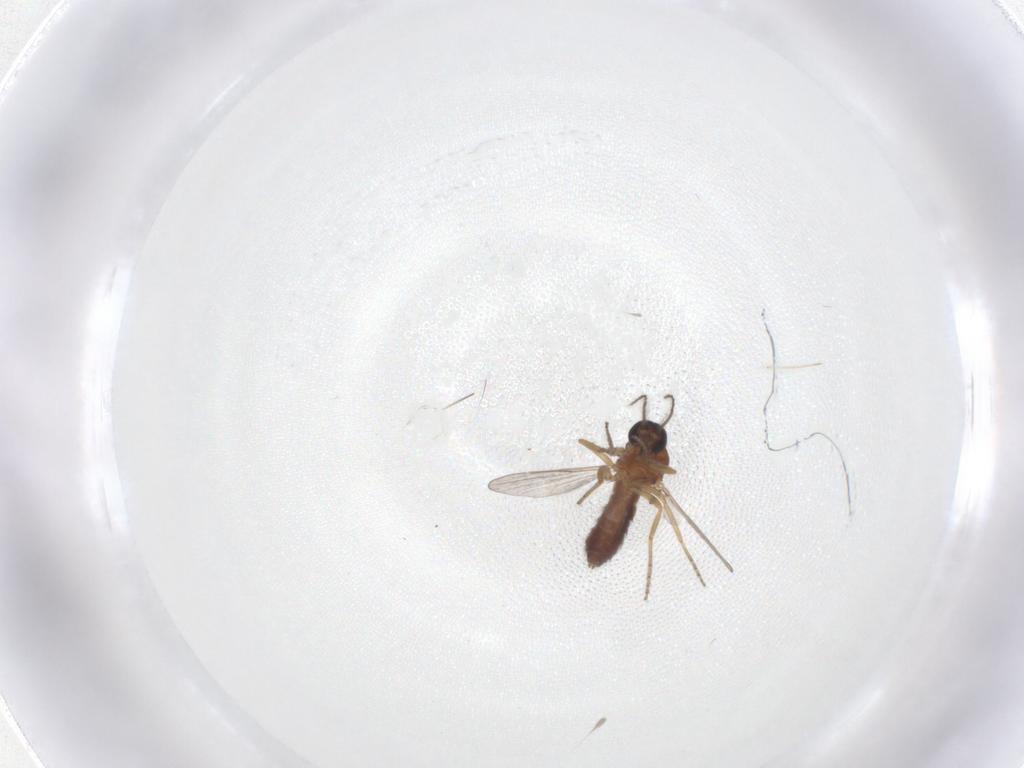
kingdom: Animalia
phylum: Arthropoda
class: Insecta
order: Diptera
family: Ceratopogonidae
